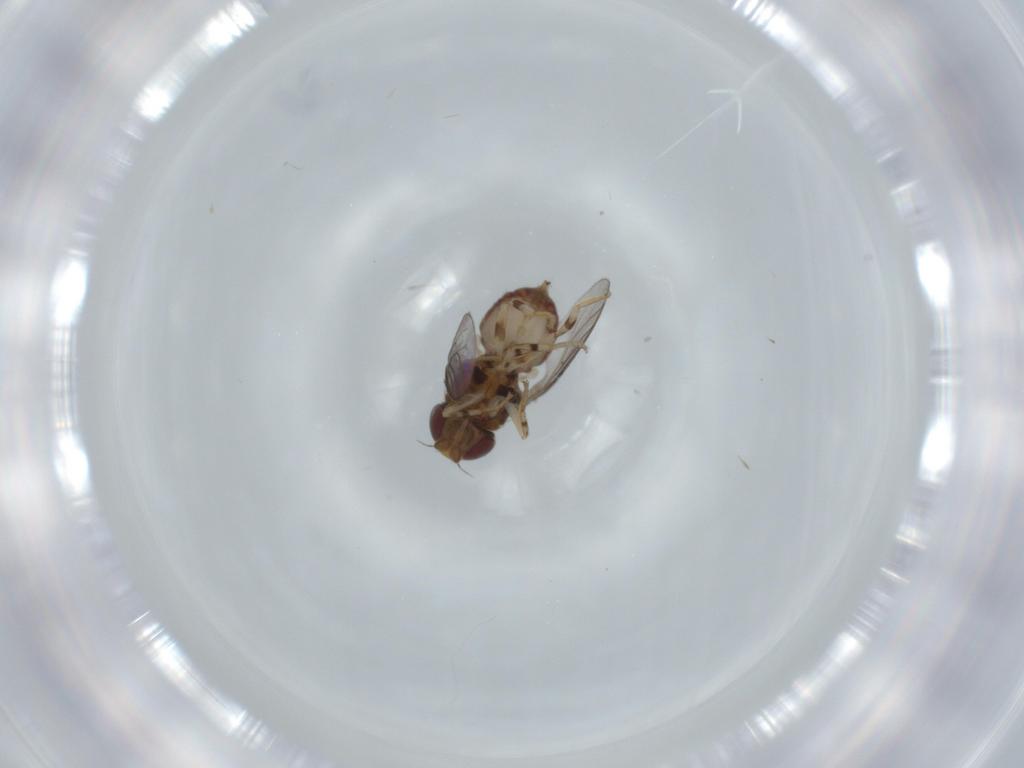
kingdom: Animalia
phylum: Arthropoda
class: Insecta
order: Diptera
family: Chloropidae
